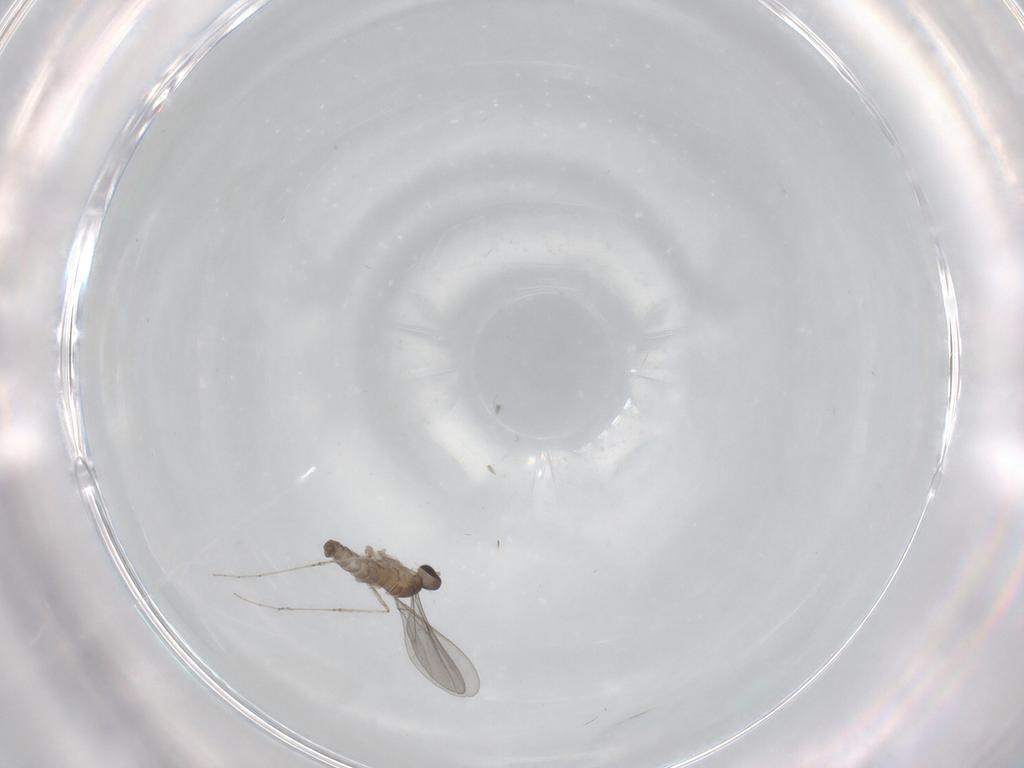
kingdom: Animalia
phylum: Arthropoda
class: Insecta
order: Diptera
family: Cecidomyiidae
